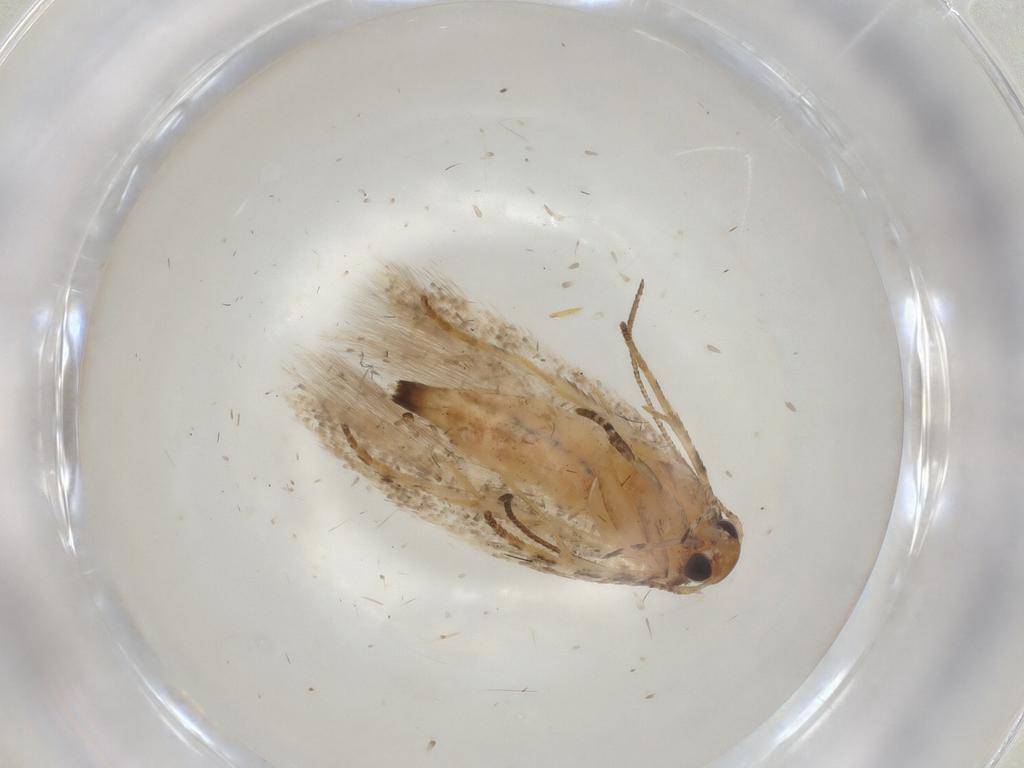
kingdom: Animalia
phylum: Arthropoda
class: Insecta
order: Lepidoptera
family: Gelechiidae
